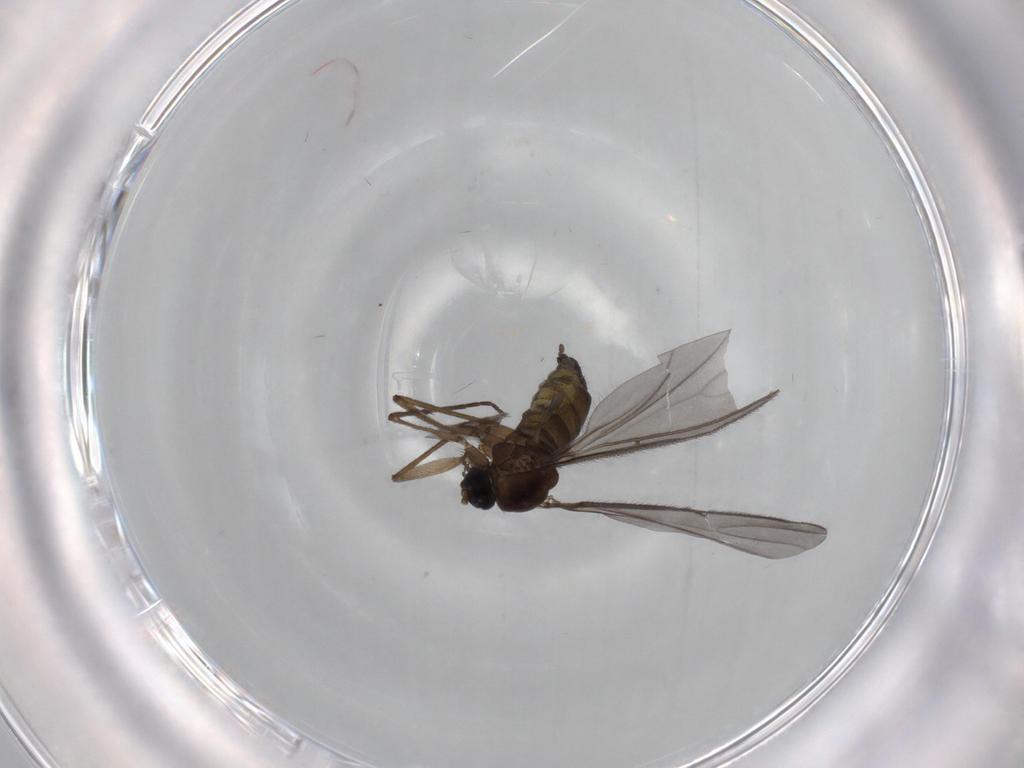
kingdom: Animalia
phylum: Arthropoda
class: Insecta
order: Diptera
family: Sciaridae
